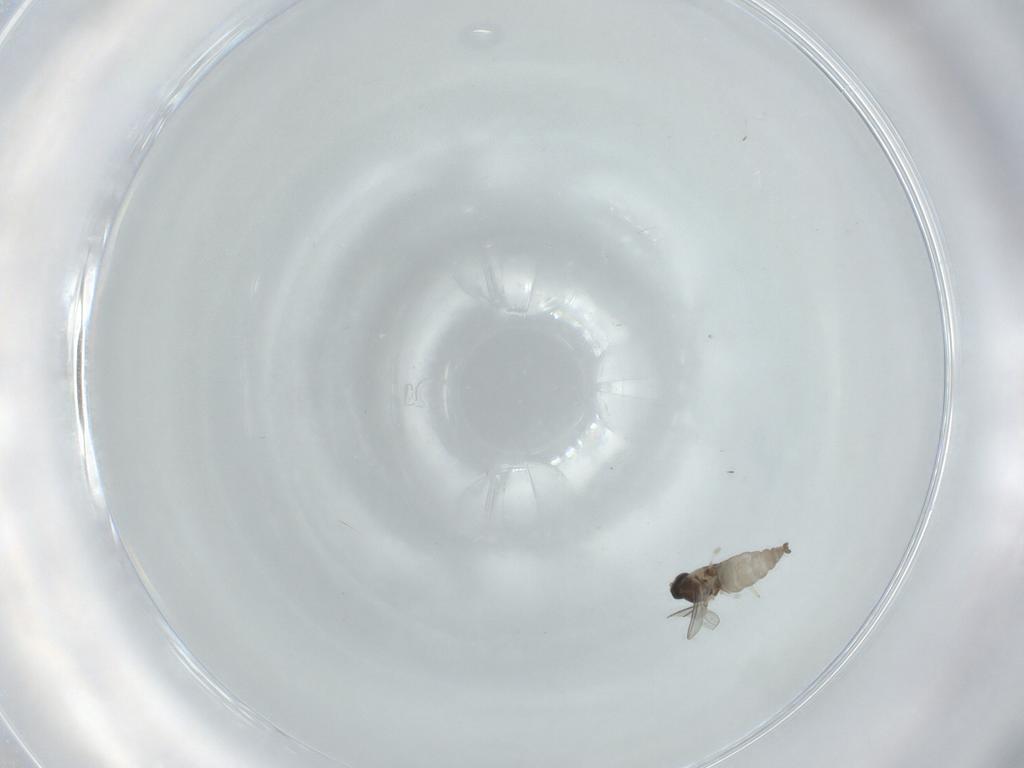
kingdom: Animalia
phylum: Arthropoda
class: Insecta
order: Diptera
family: Cecidomyiidae
